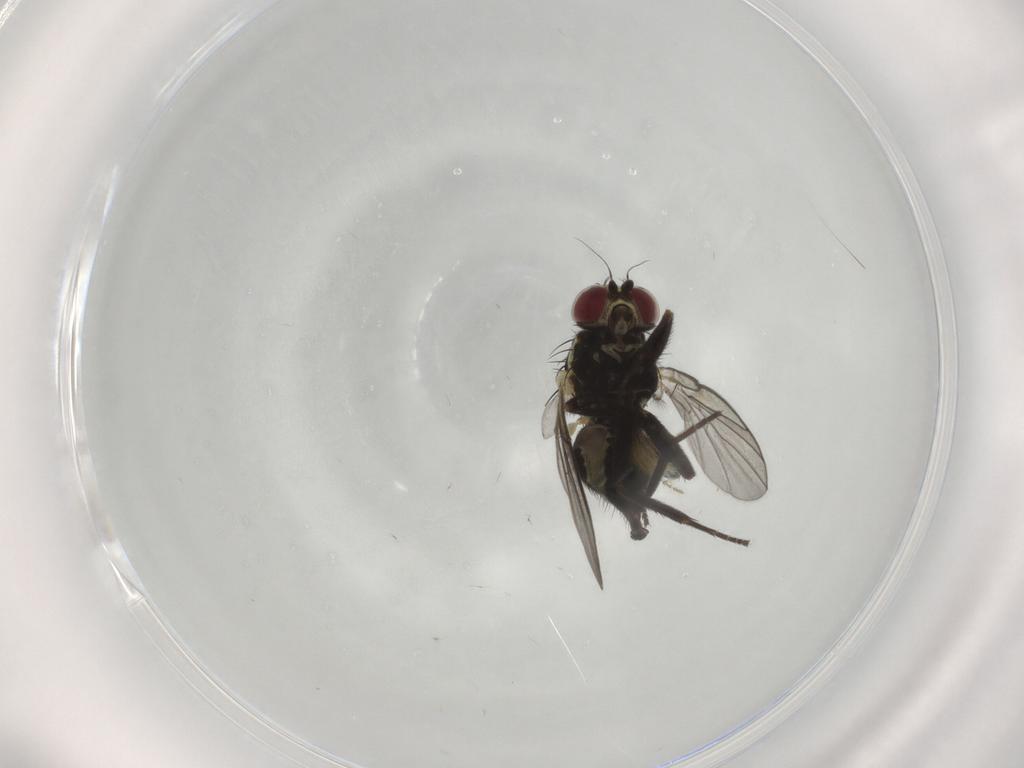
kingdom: Animalia
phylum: Arthropoda
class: Insecta
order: Diptera
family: Agromyzidae
